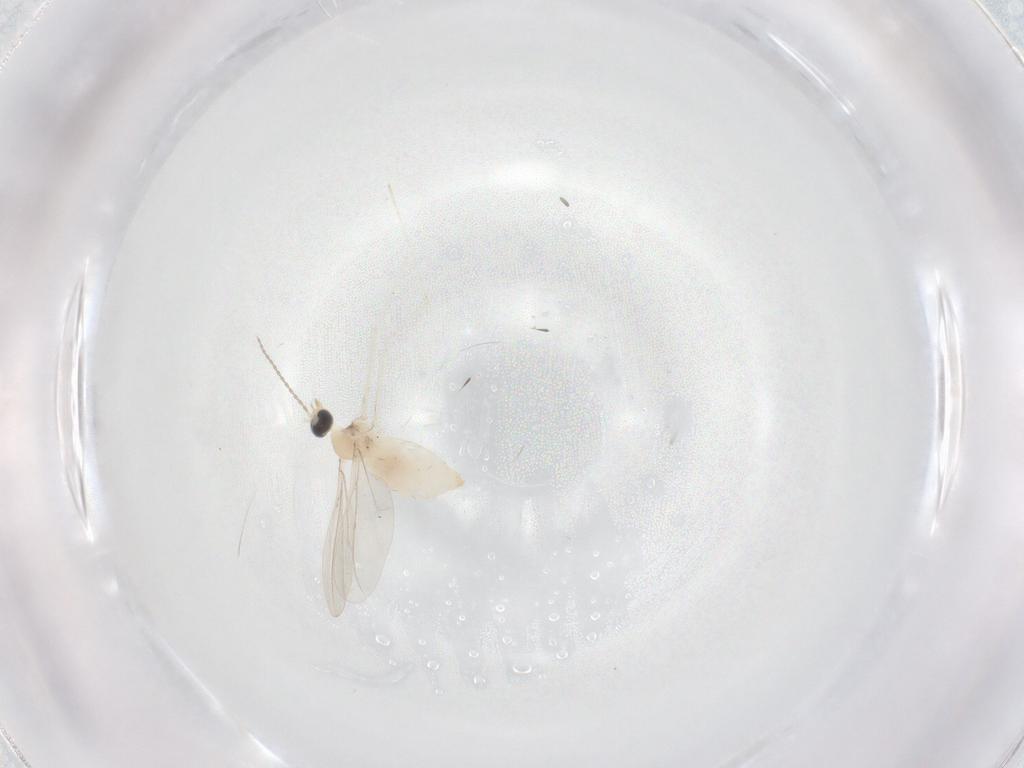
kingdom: Animalia
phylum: Arthropoda
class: Insecta
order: Diptera
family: Cecidomyiidae
